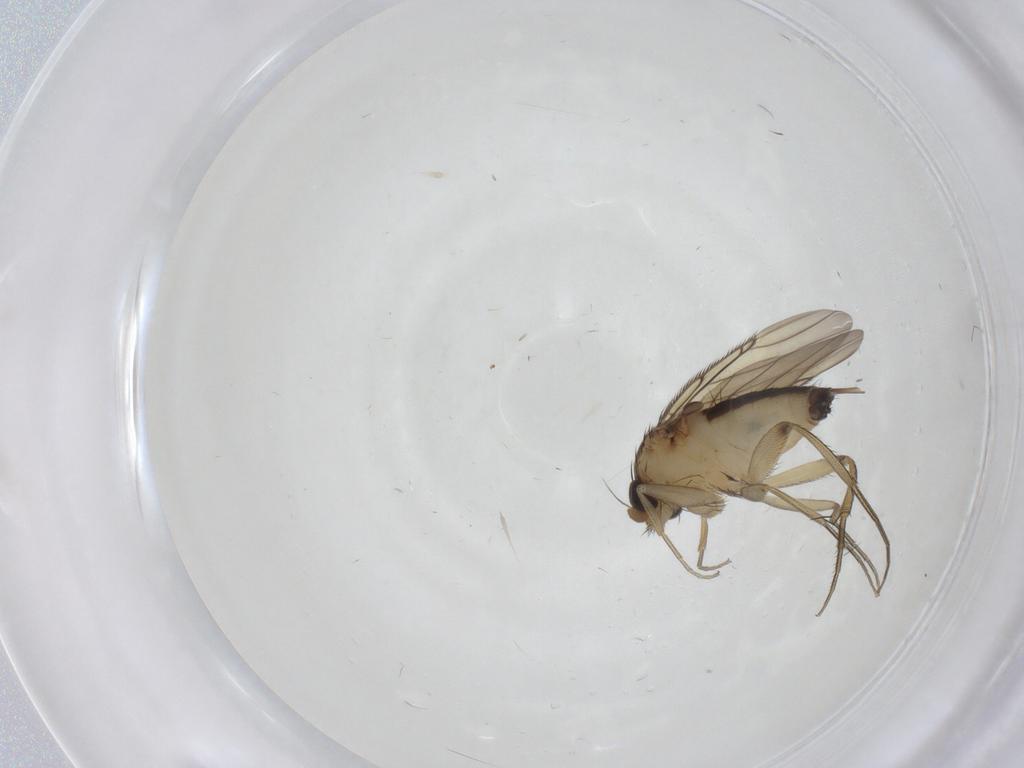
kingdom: Animalia
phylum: Arthropoda
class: Insecta
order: Diptera
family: Phoridae
